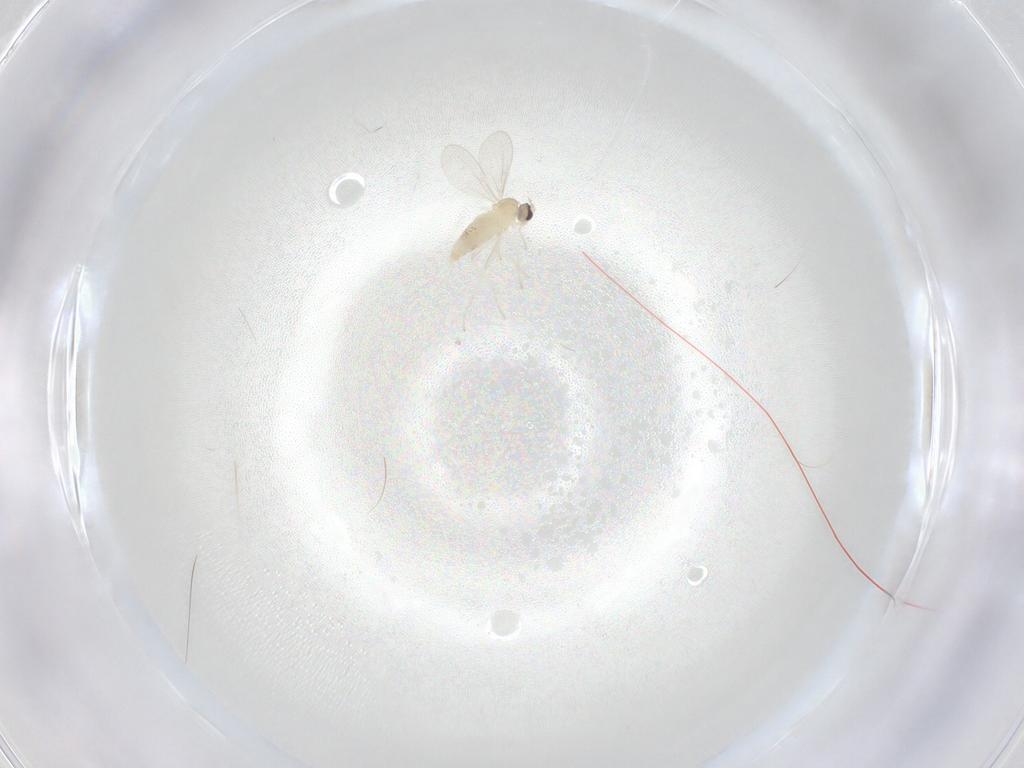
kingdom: Animalia
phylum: Arthropoda
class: Insecta
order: Diptera
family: Cecidomyiidae
